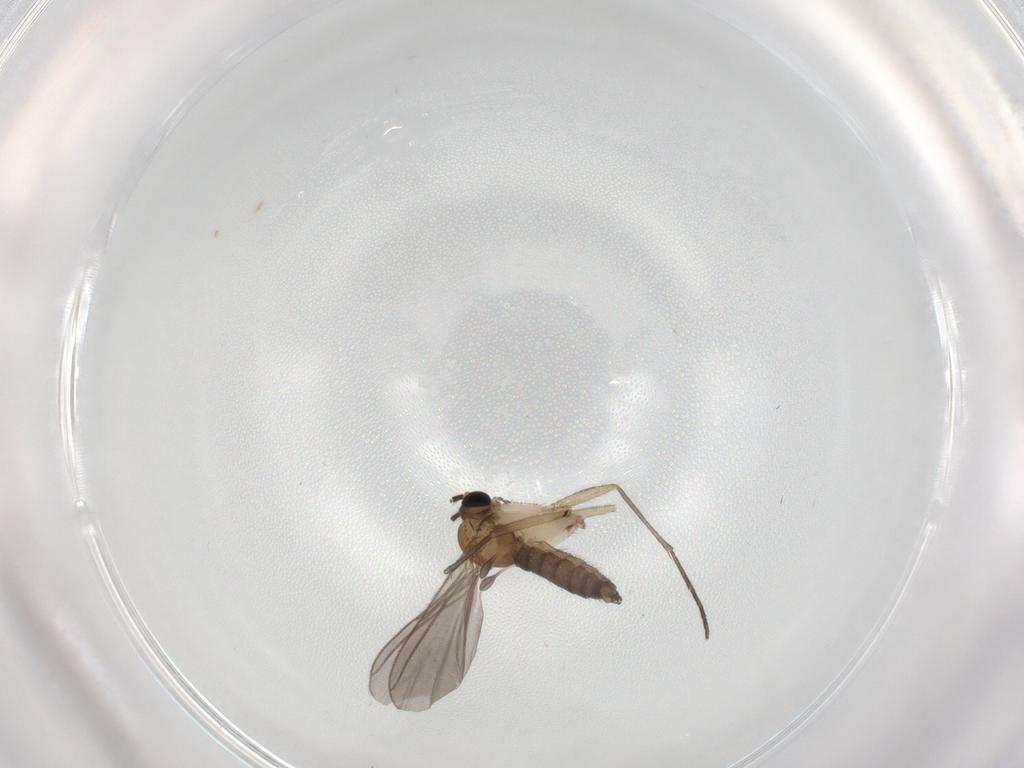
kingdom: Animalia
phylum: Arthropoda
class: Insecta
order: Diptera
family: Sciaridae
